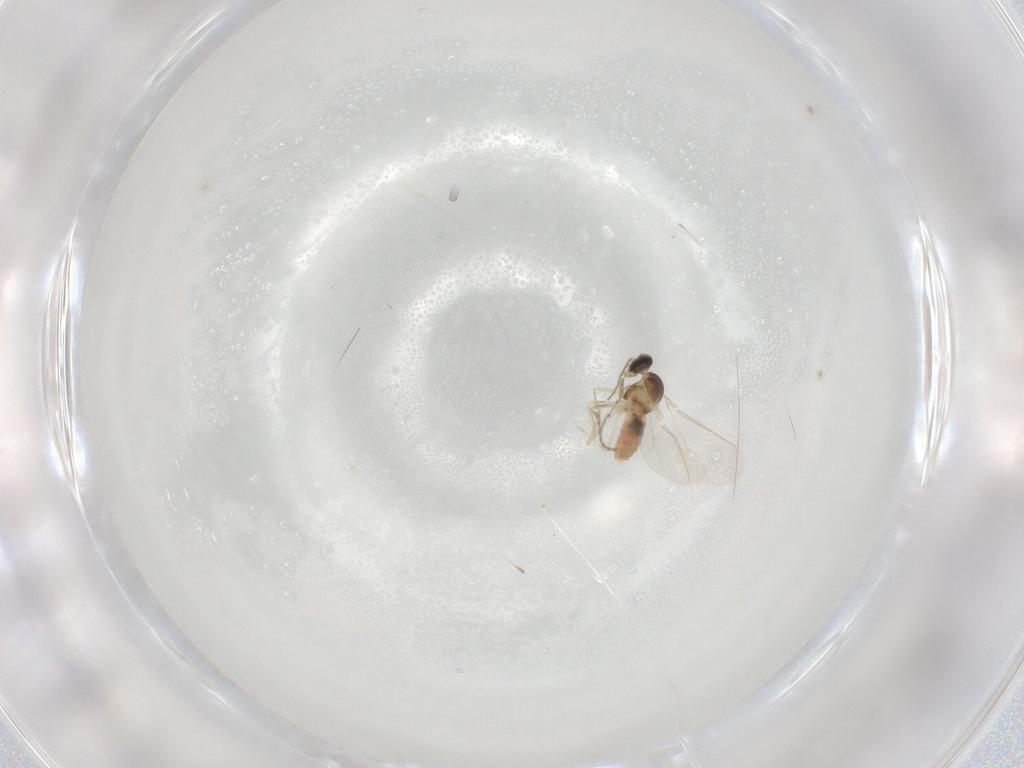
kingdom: Animalia
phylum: Arthropoda
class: Insecta
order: Diptera
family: Cecidomyiidae
